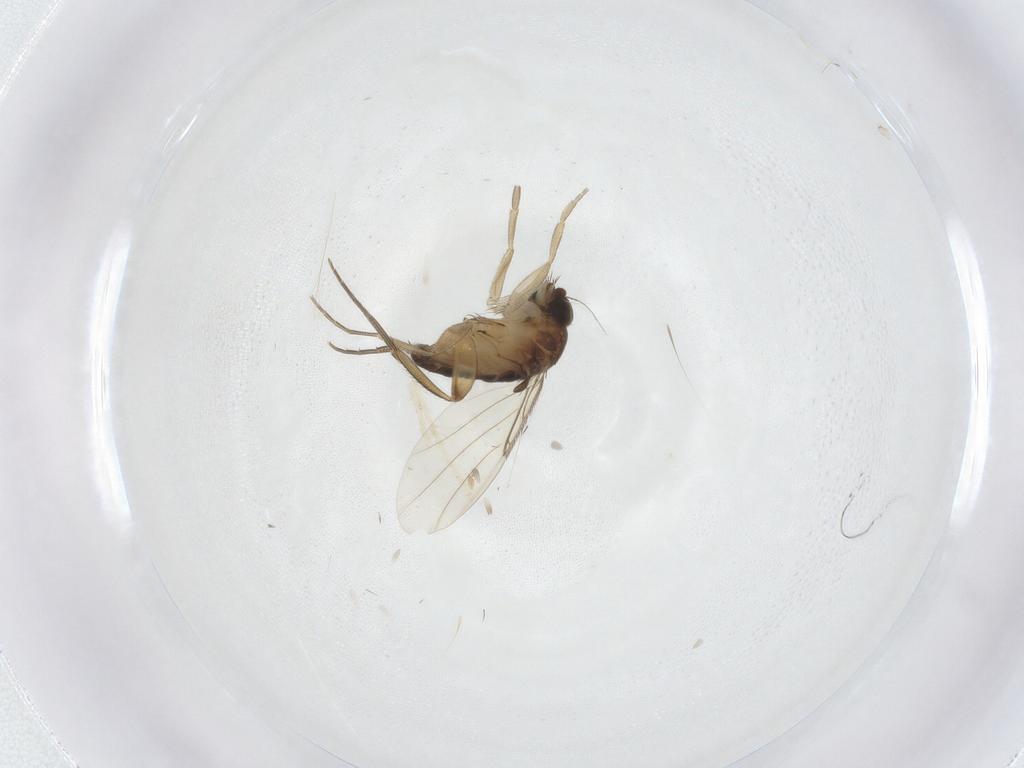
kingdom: Animalia
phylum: Arthropoda
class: Insecta
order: Diptera
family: Phoridae
